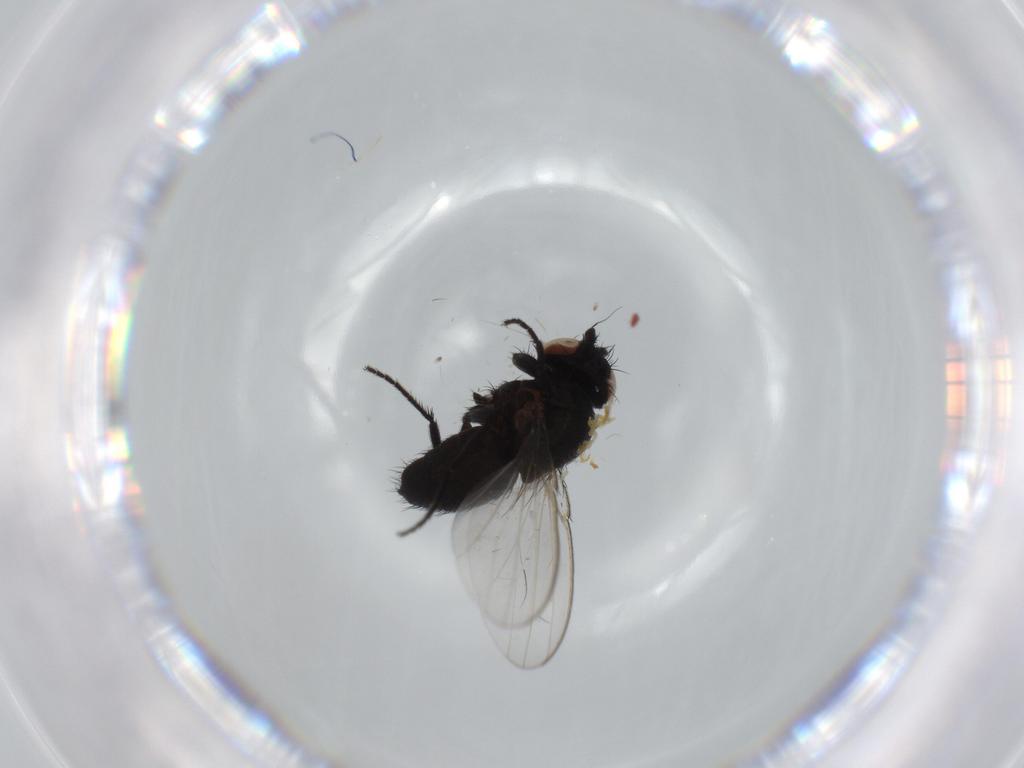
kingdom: Animalia
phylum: Arthropoda
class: Insecta
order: Diptera
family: Milichiidae
